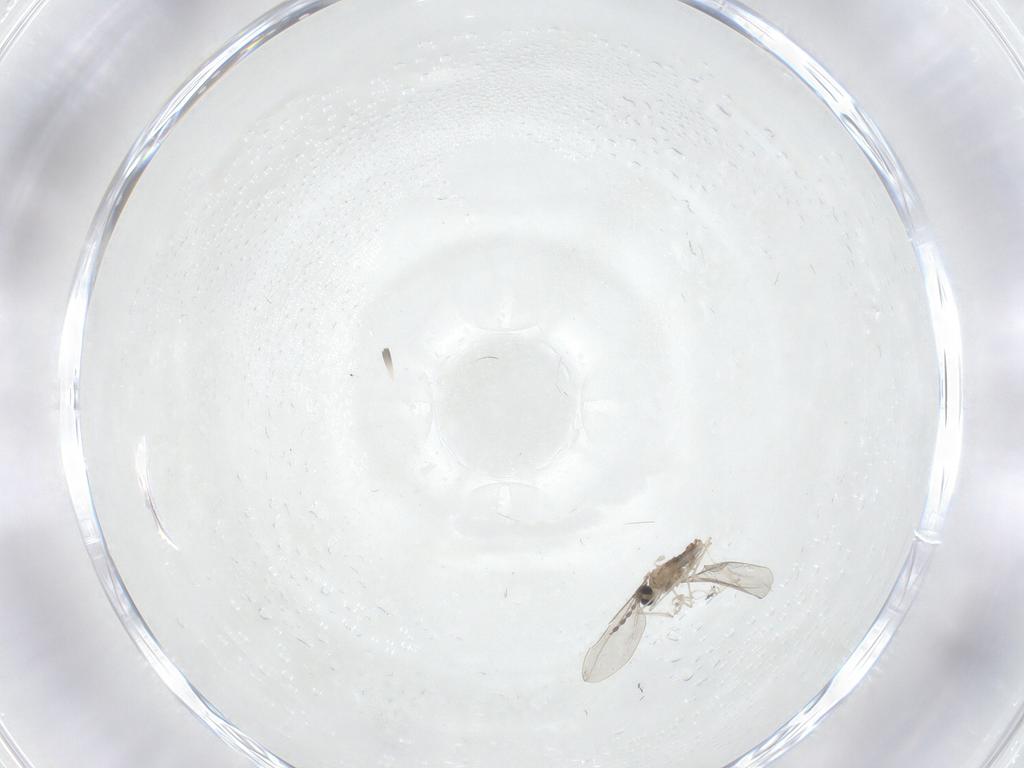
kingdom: Animalia
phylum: Arthropoda
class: Insecta
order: Diptera
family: Cecidomyiidae
